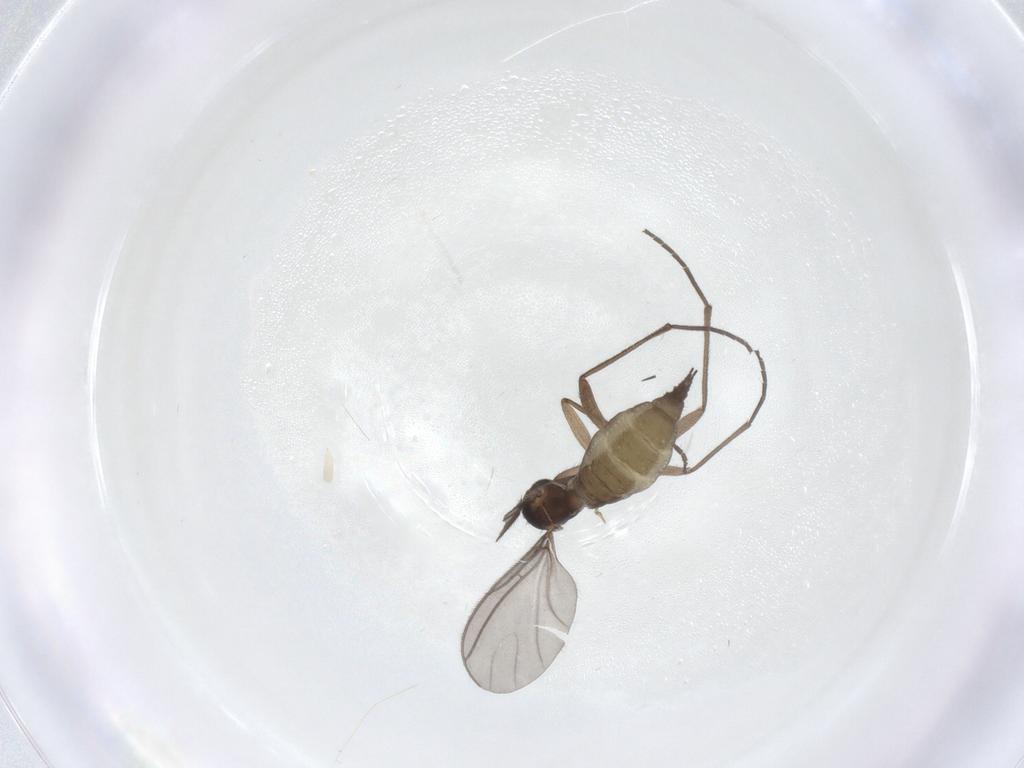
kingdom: Animalia
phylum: Arthropoda
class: Insecta
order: Diptera
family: Sciaridae
